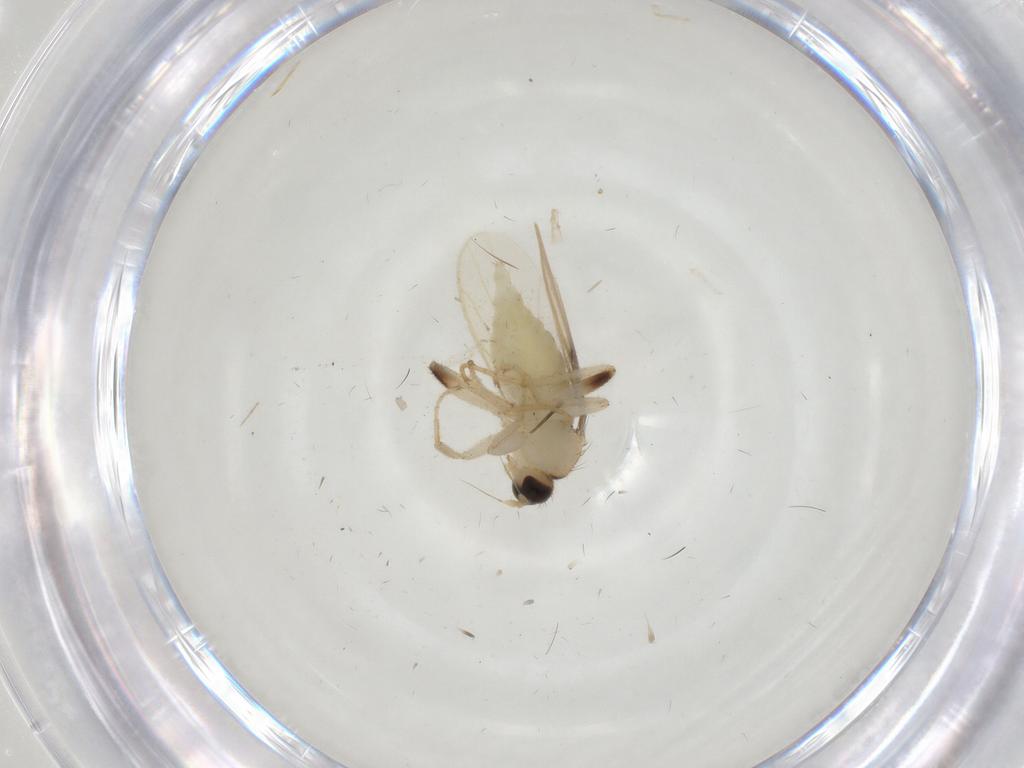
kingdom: Animalia
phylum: Arthropoda
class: Insecta
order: Diptera
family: Hybotidae
